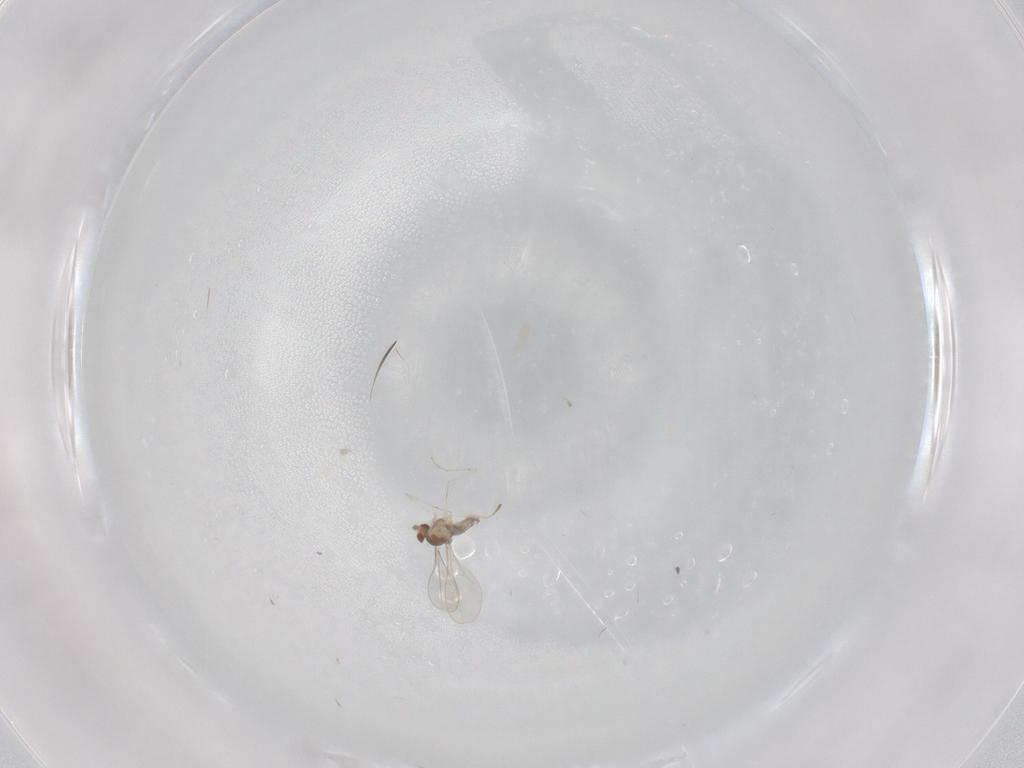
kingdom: Animalia
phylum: Arthropoda
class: Insecta
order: Diptera
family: Cecidomyiidae
